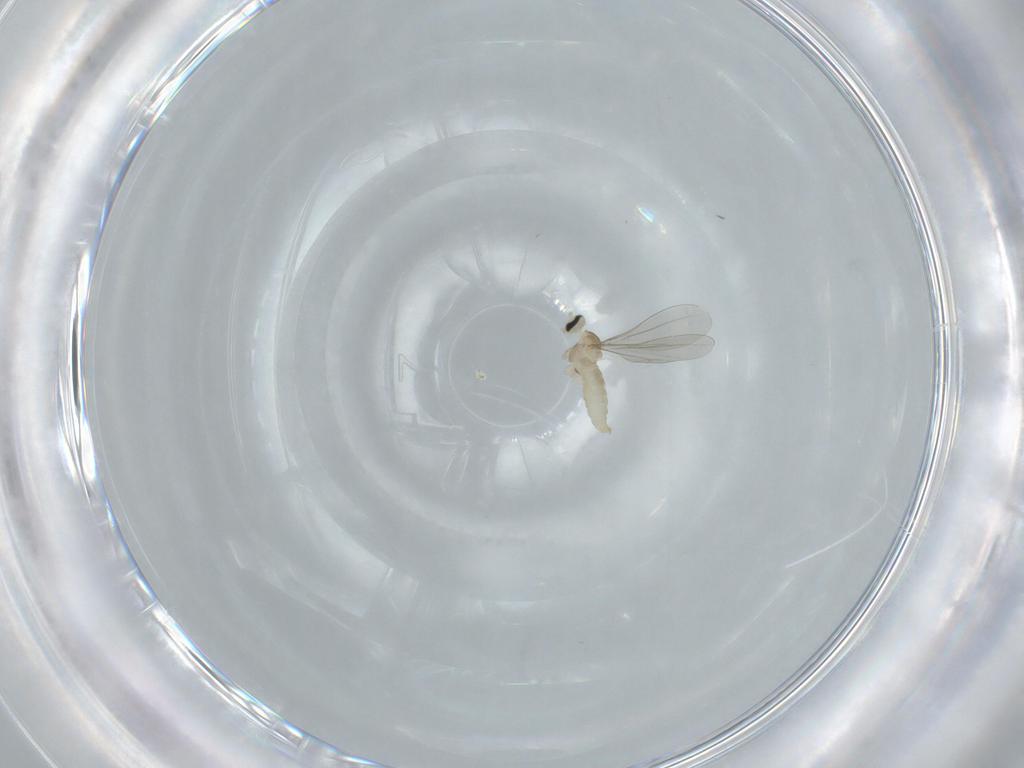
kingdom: Animalia
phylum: Arthropoda
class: Insecta
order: Diptera
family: Cecidomyiidae
